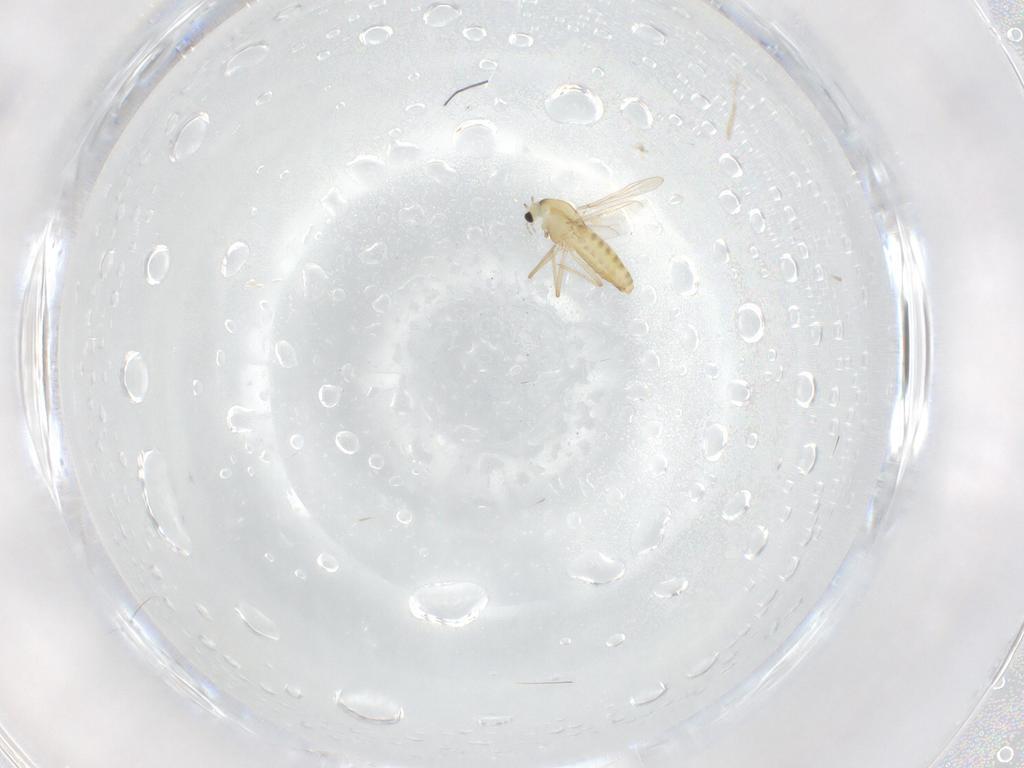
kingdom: Animalia
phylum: Arthropoda
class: Insecta
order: Diptera
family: Chironomidae
